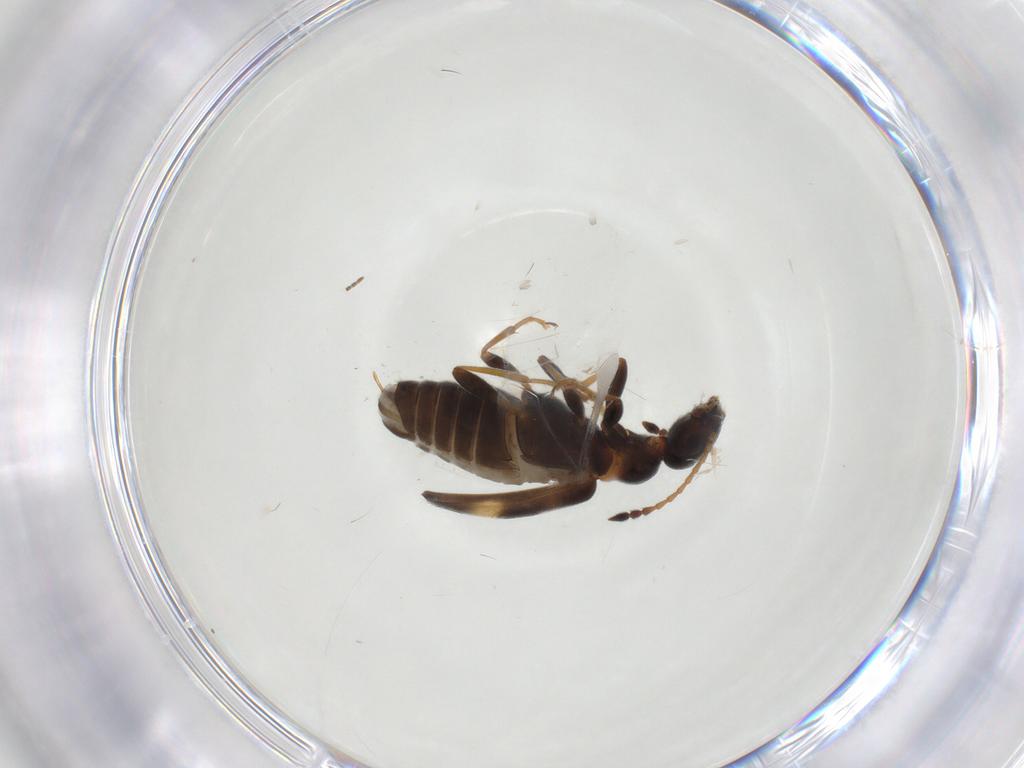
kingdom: Animalia
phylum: Arthropoda
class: Insecta
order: Coleoptera
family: Anthicidae
